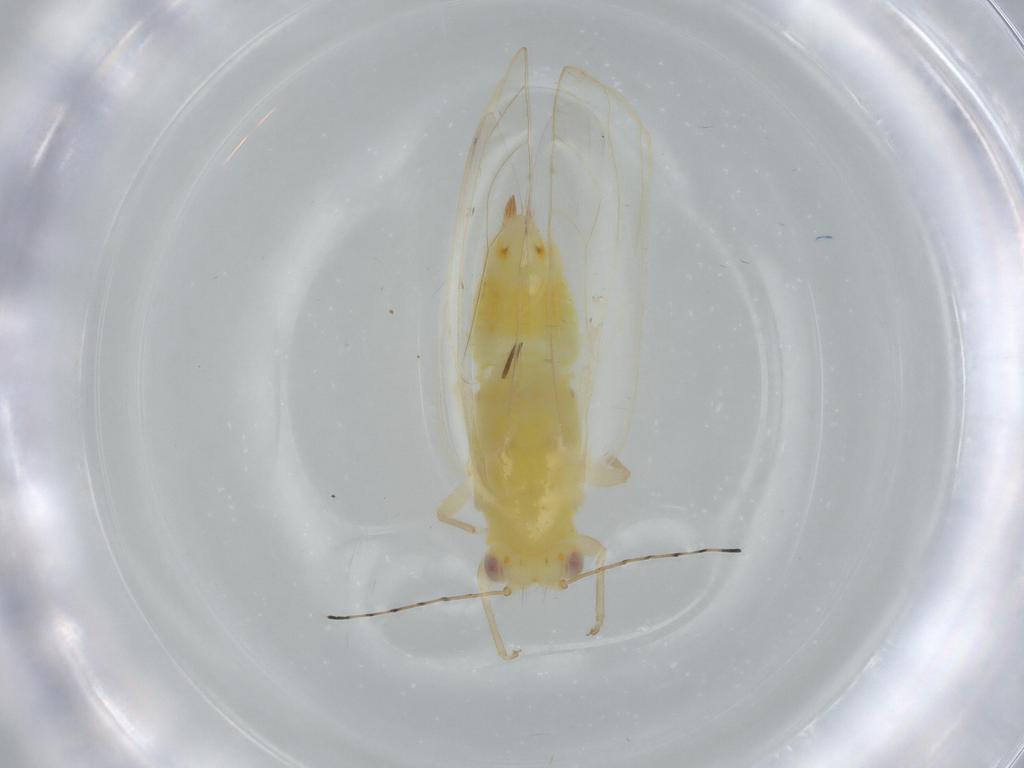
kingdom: Animalia
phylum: Arthropoda
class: Insecta
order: Hemiptera
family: Triozidae
